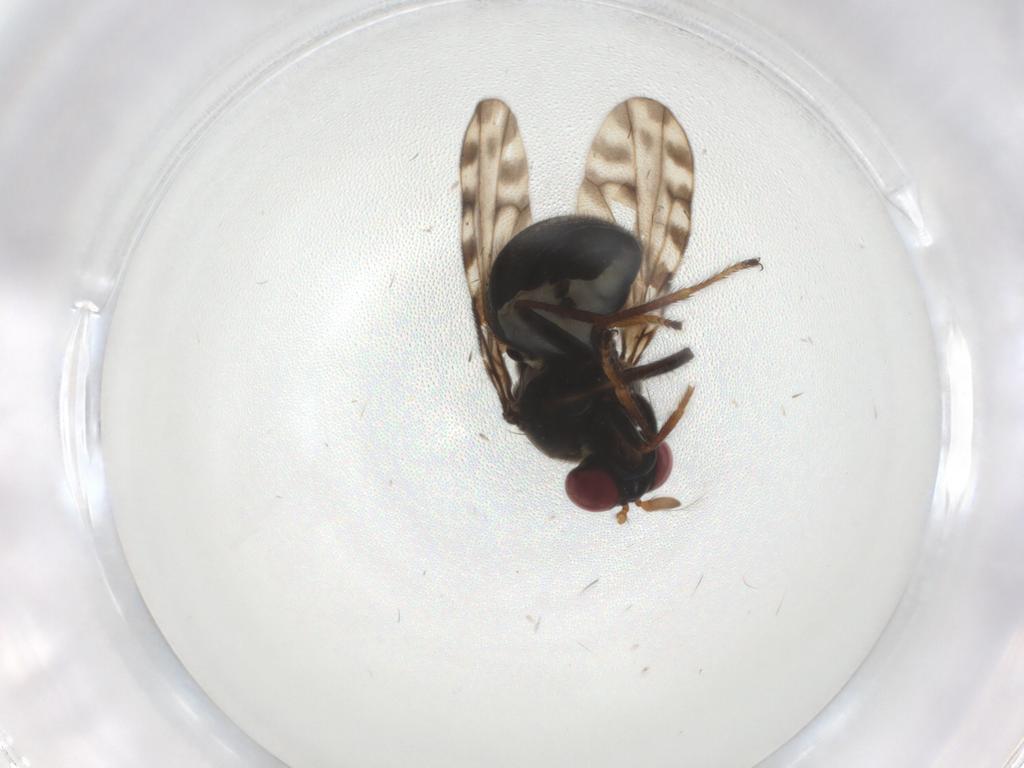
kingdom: Animalia
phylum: Arthropoda
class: Insecta
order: Diptera
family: Ephydridae
